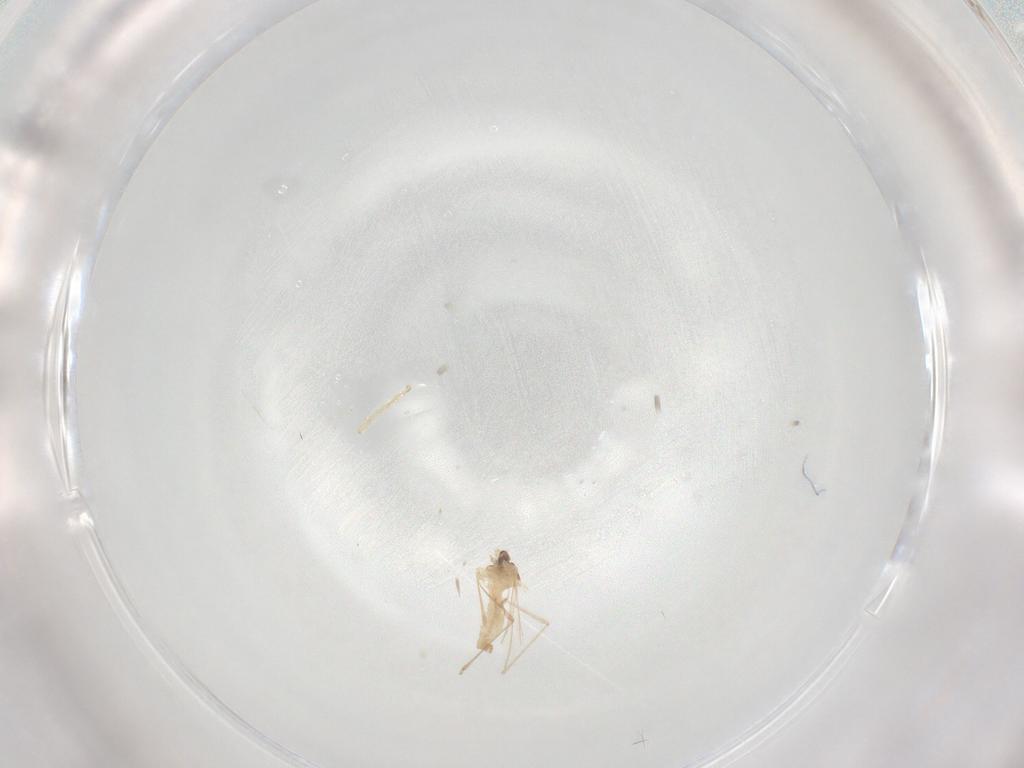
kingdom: Animalia
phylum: Arthropoda
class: Insecta
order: Diptera
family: Cecidomyiidae
